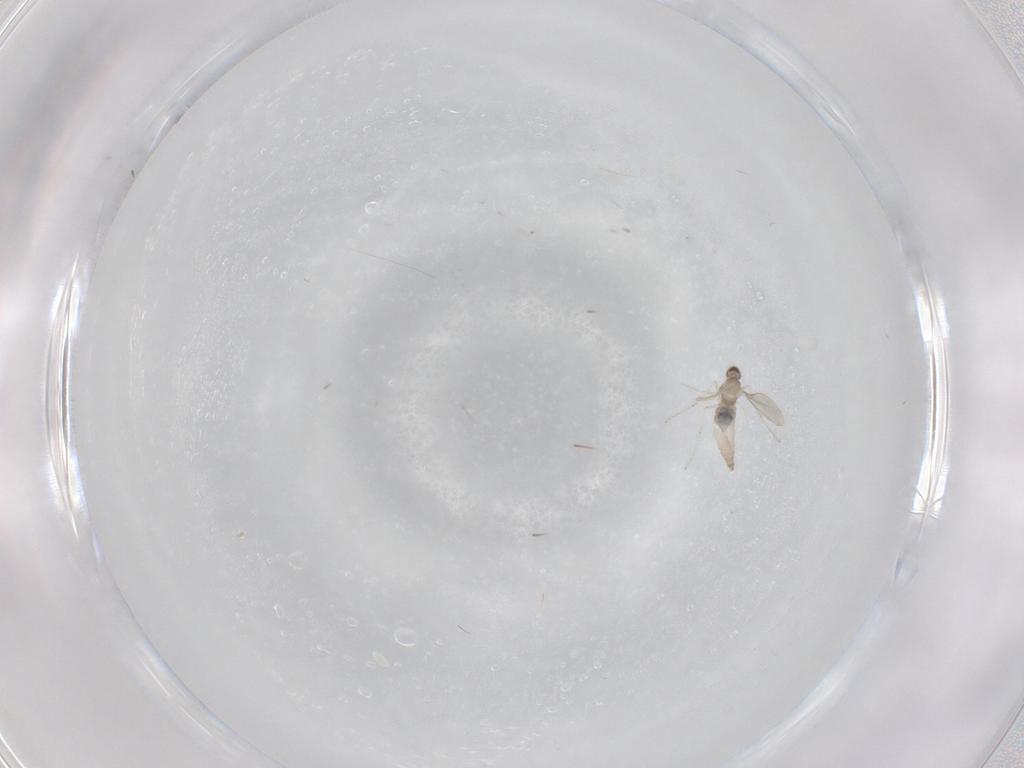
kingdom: Animalia
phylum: Arthropoda
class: Insecta
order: Diptera
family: Cecidomyiidae
